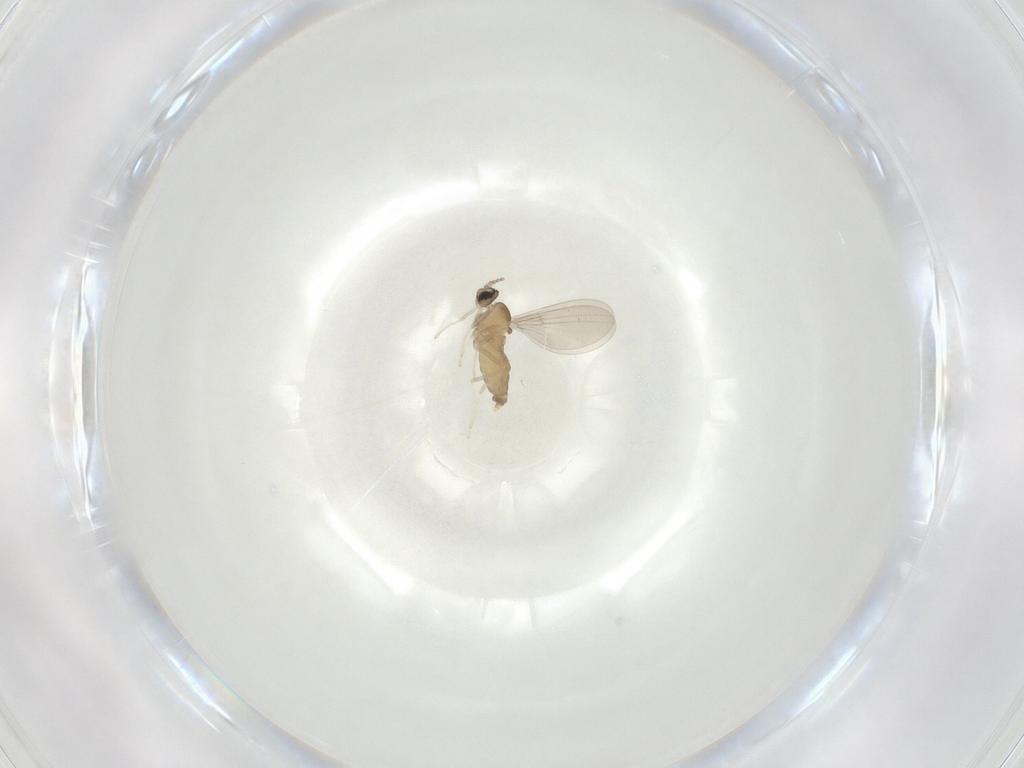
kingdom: Animalia
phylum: Arthropoda
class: Insecta
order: Diptera
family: Cecidomyiidae
